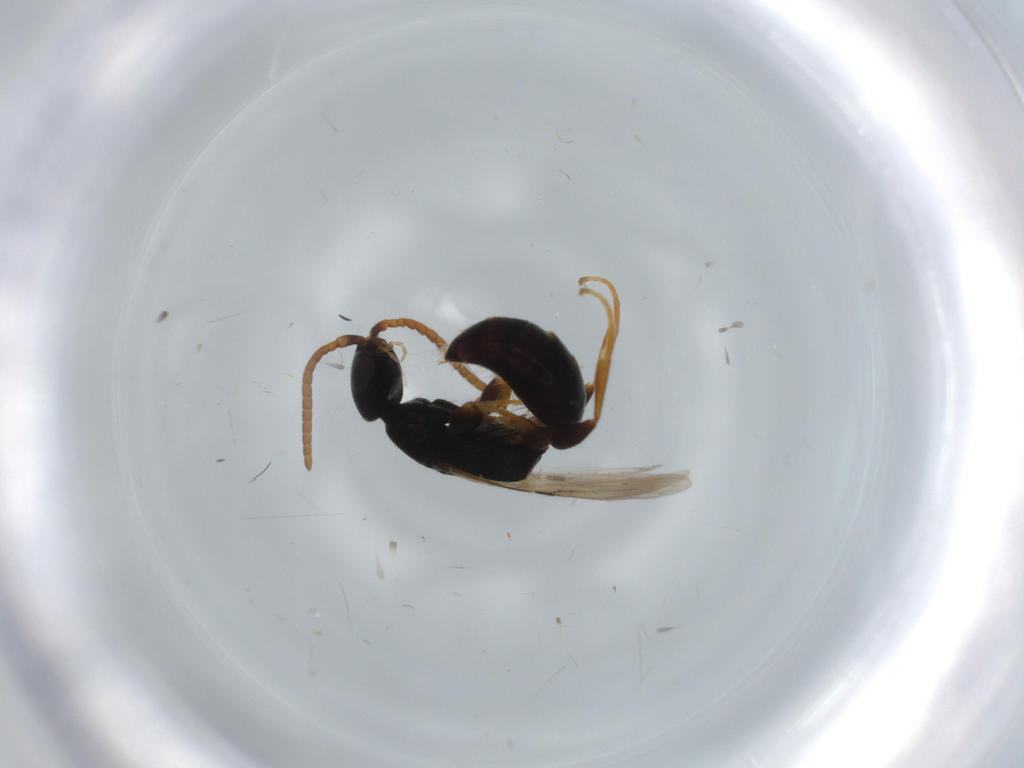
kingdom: Animalia
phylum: Arthropoda
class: Insecta
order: Hymenoptera
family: Bethylidae
